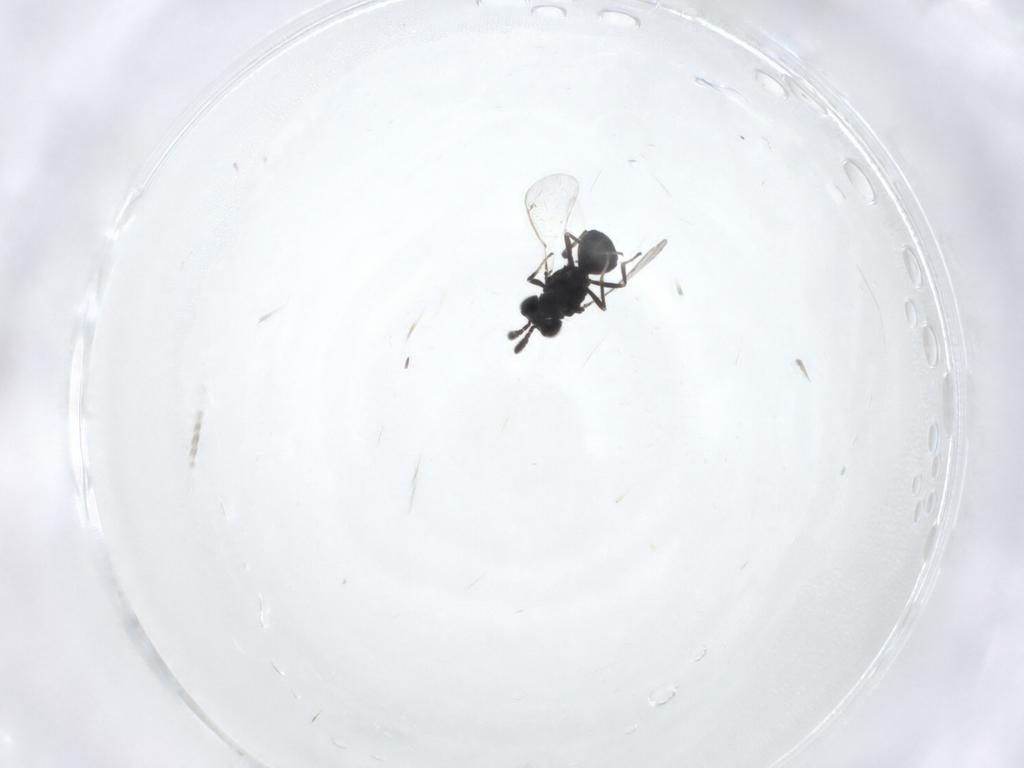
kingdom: Animalia
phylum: Arthropoda
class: Insecta
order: Hymenoptera
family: Eulophidae
